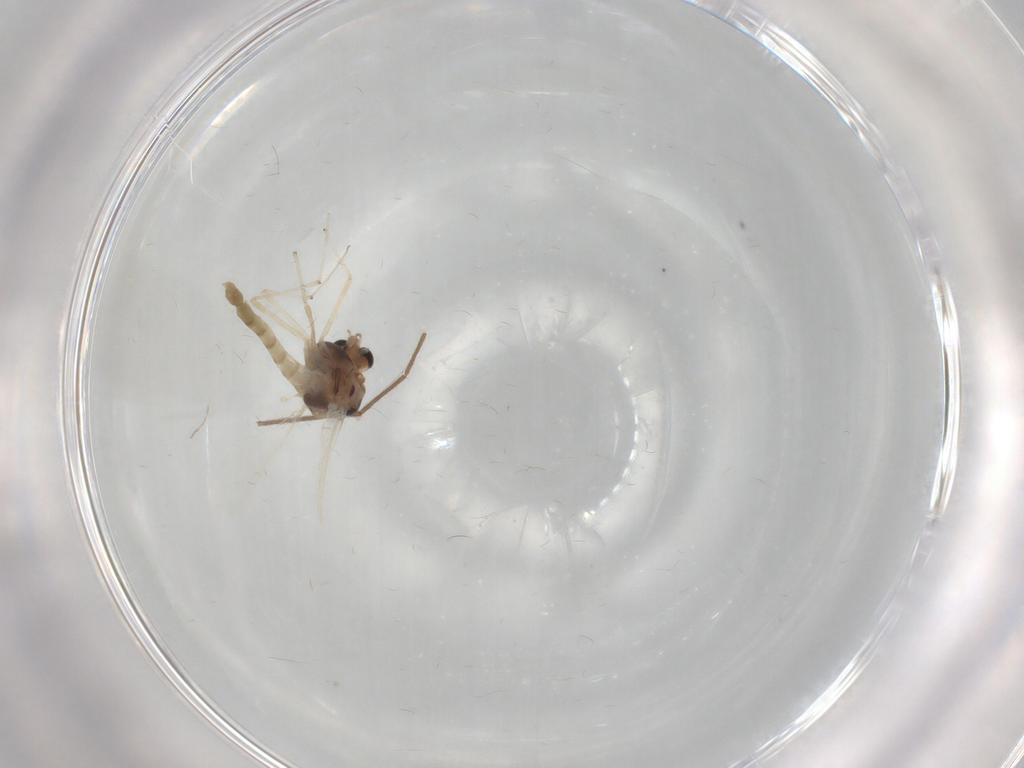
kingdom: Animalia
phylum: Arthropoda
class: Insecta
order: Diptera
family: Chironomidae
